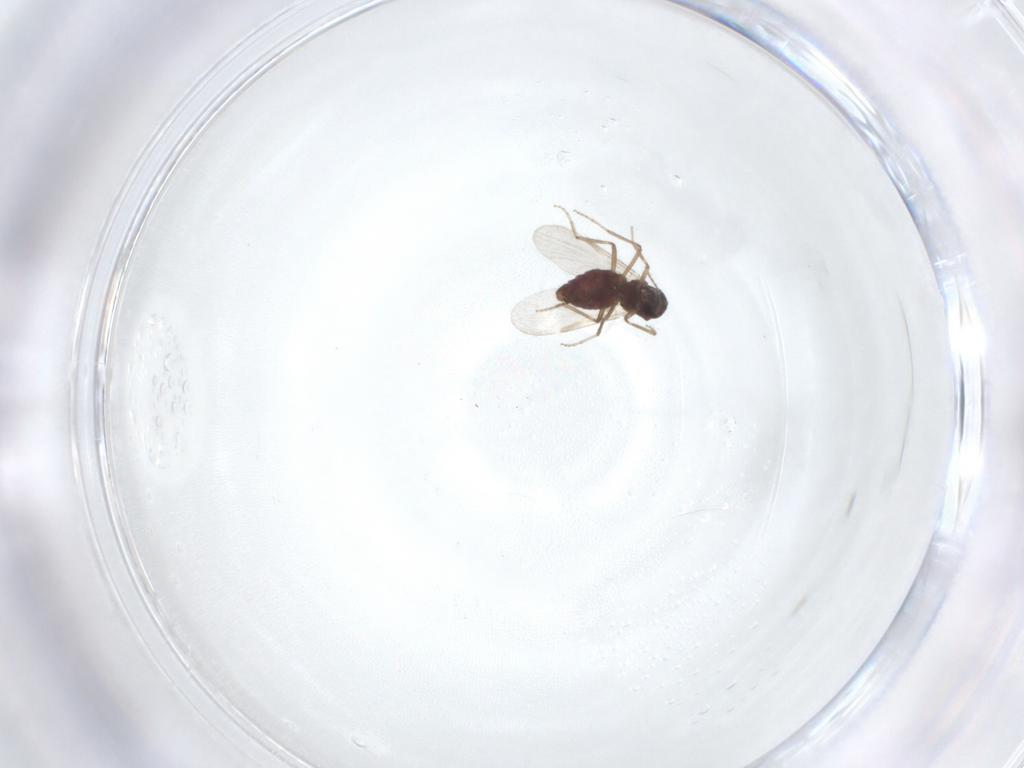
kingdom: Animalia
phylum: Arthropoda
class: Insecta
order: Diptera
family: Ceratopogonidae
